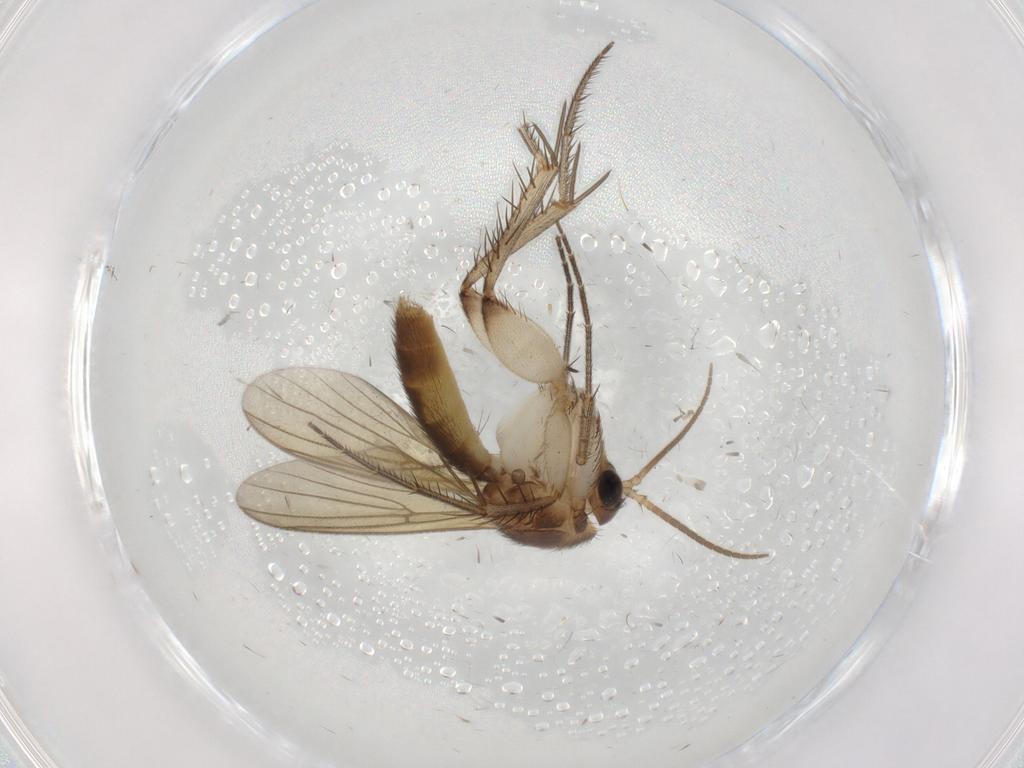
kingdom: Animalia
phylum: Arthropoda
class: Insecta
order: Diptera
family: Mycetophilidae
